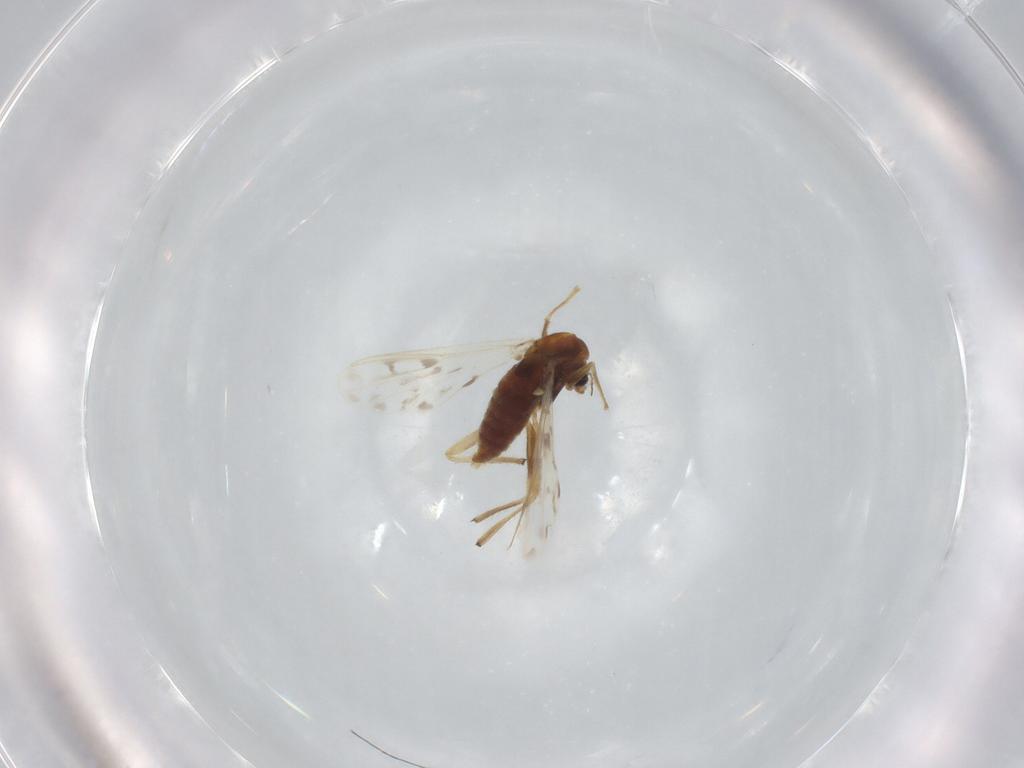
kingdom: Animalia
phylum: Arthropoda
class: Insecta
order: Diptera
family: Chironomidae
